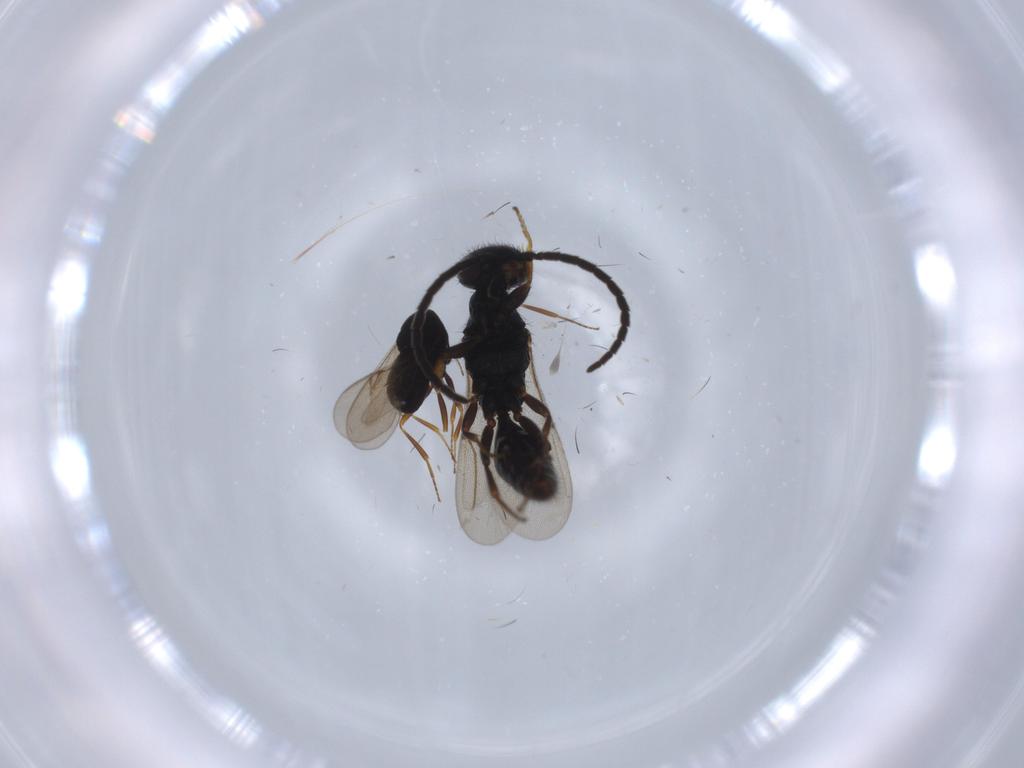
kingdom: Animalia
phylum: Arthropoda
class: Insecta
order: Hymenoptera
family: Bethylidae
